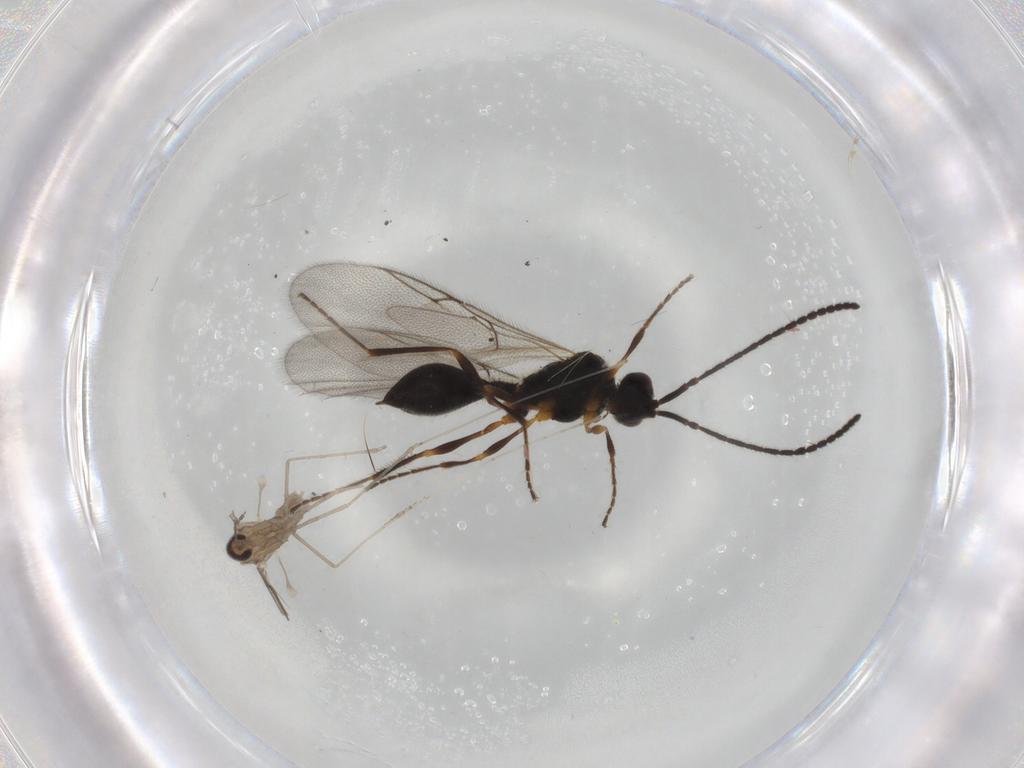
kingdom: Animalia
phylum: Arthropoda
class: Insecta
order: Diptera
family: Cecidomyiidae
